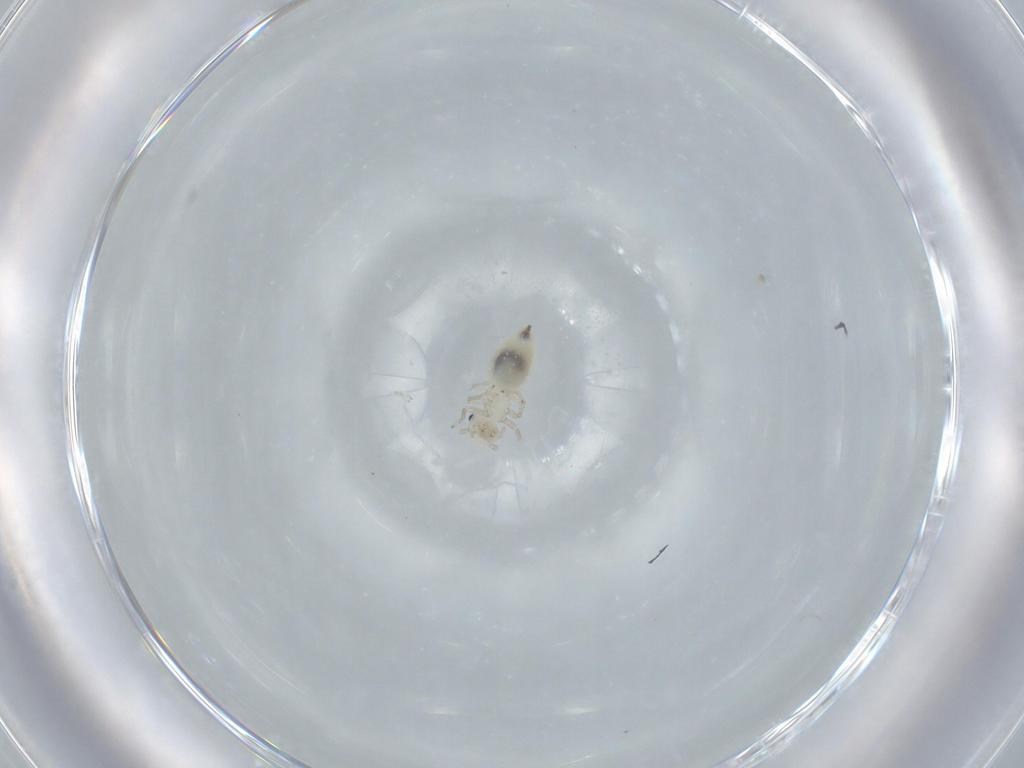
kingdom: Animalia
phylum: Arthropoda
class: Insecta
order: Psocodea
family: Caeciliusidae
